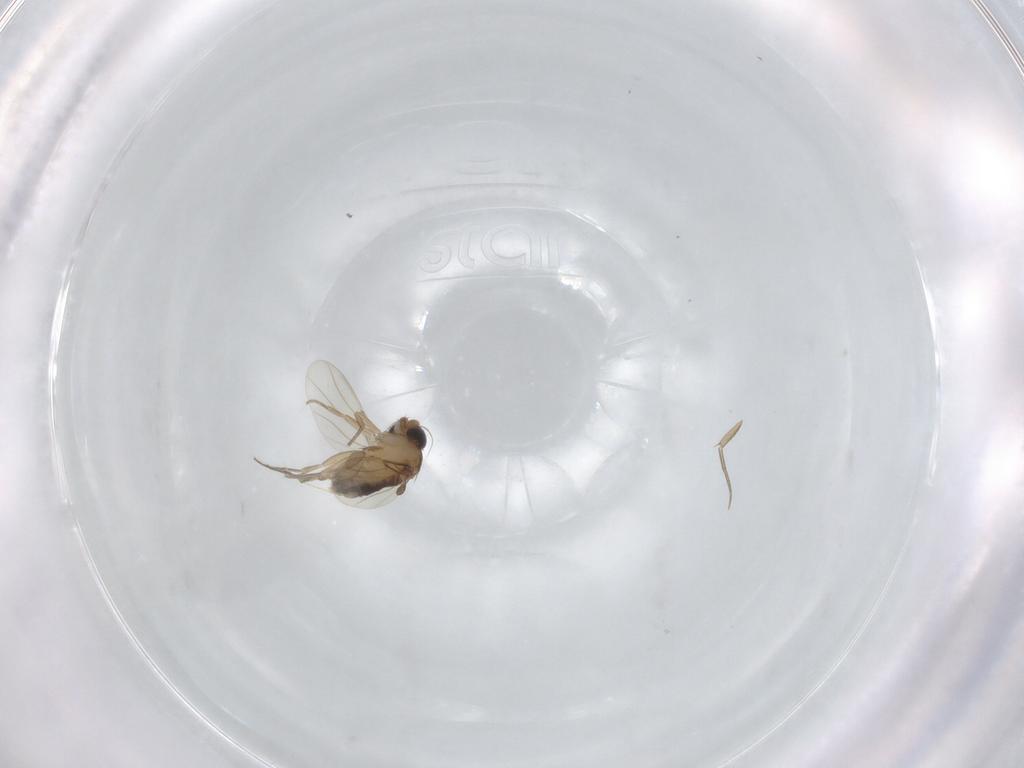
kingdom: Animalia
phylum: Arthropoda
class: Insecta
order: Diptera
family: Phoridae
